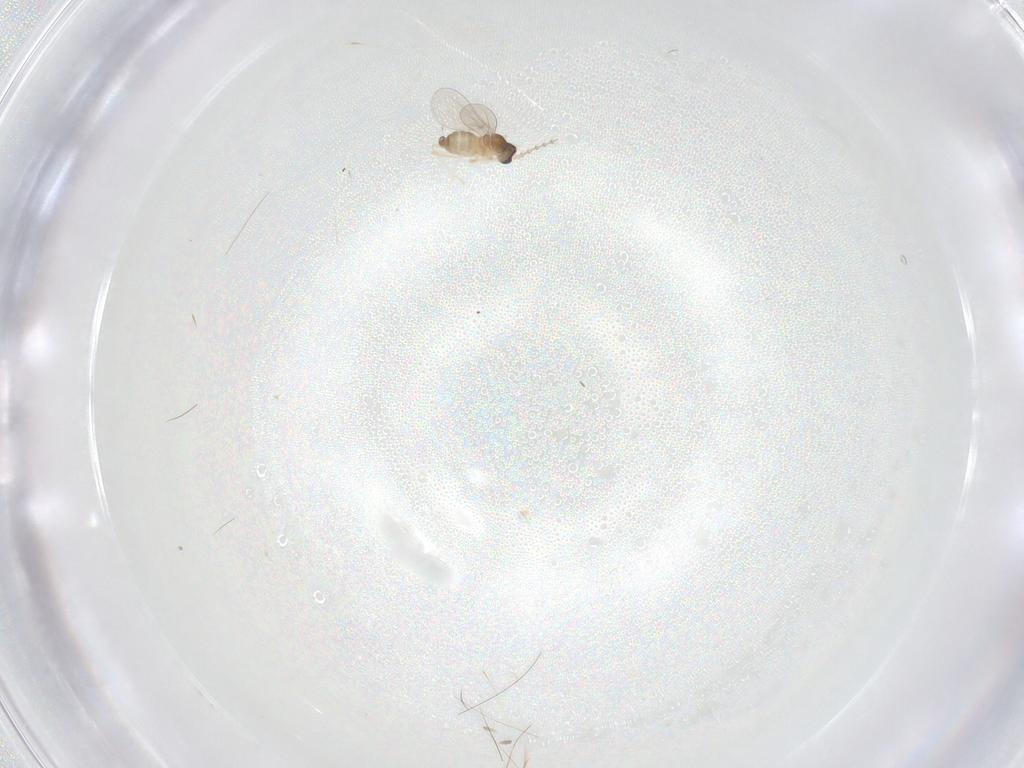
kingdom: Animalia
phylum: Arthropoda
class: Insecta
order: Diptera
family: Cecidomyiidae
